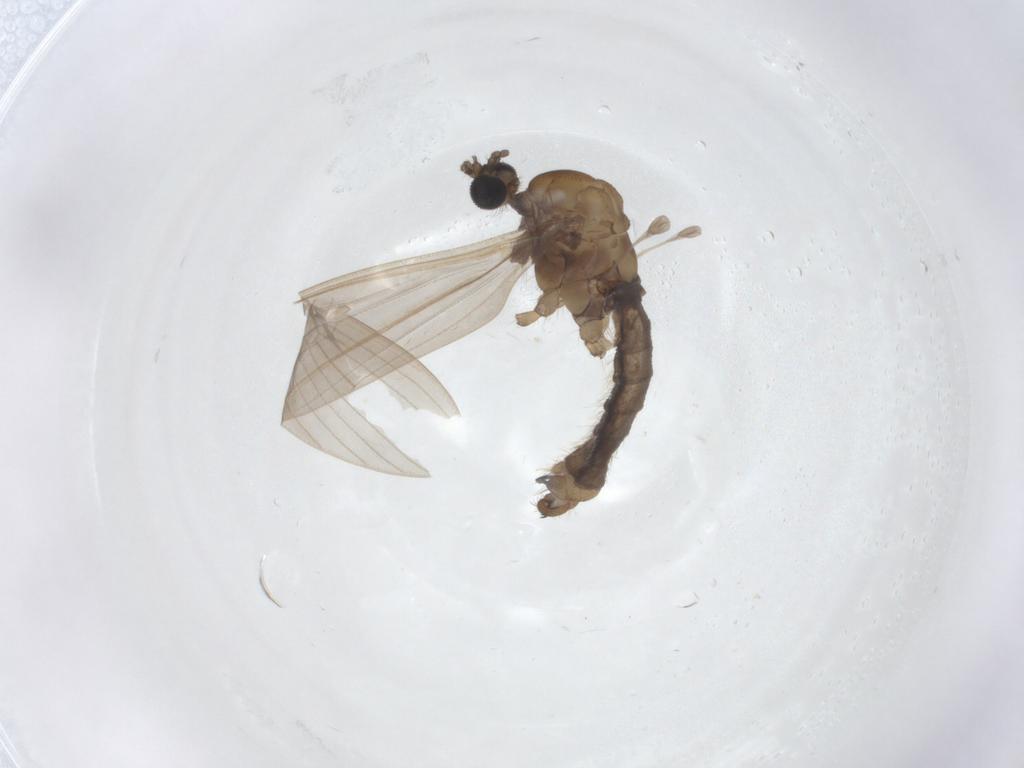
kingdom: Animalia
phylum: Arthropoda
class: Insecta
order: Diptera
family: Limoniidae
